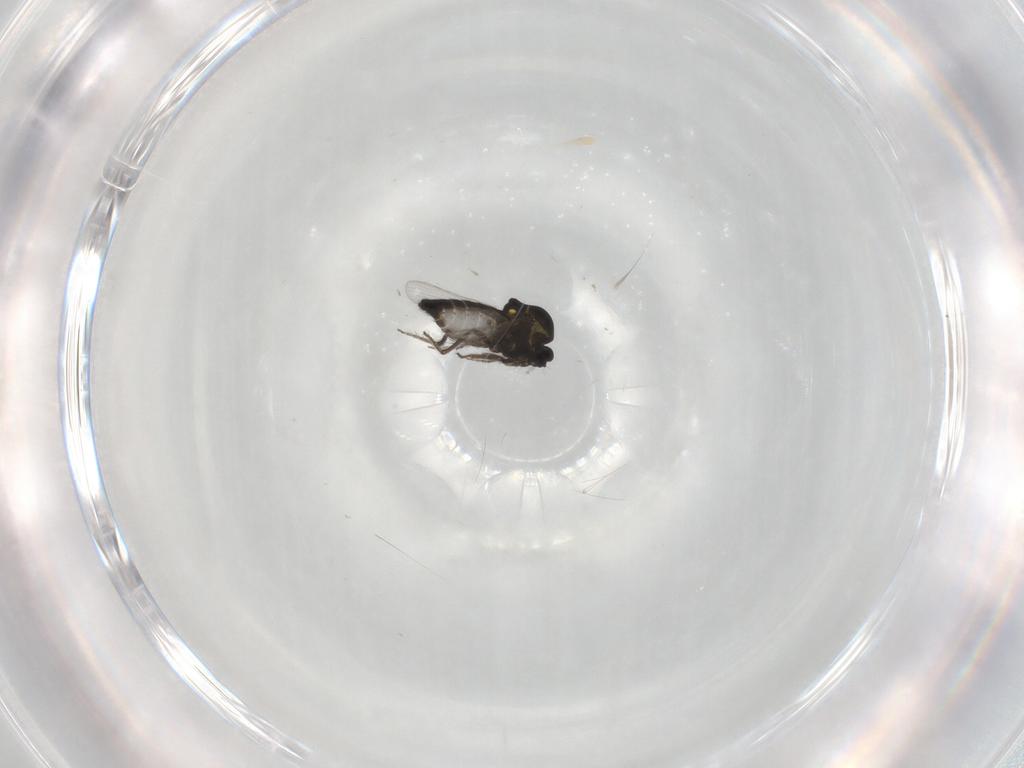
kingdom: Animalia
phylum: Arthropoda
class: Insecta
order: Diptera
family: Ceratopogonidae
